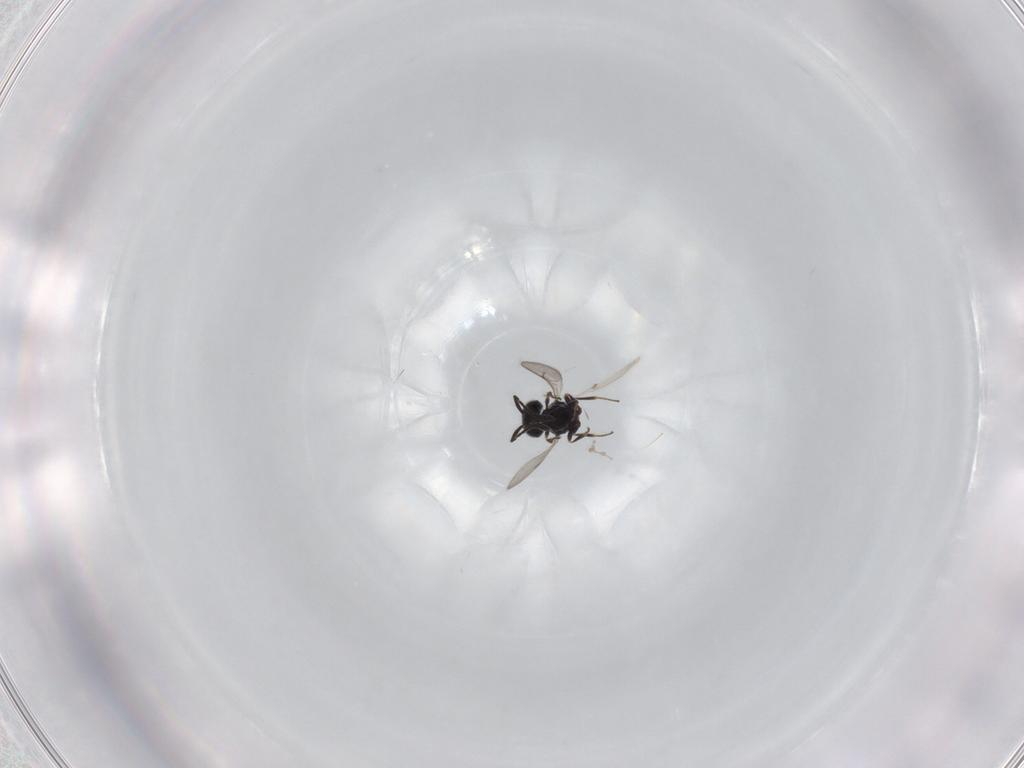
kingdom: Animalia
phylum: Arthropoda
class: Insecta
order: Hymenoptera
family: Scelionidae
